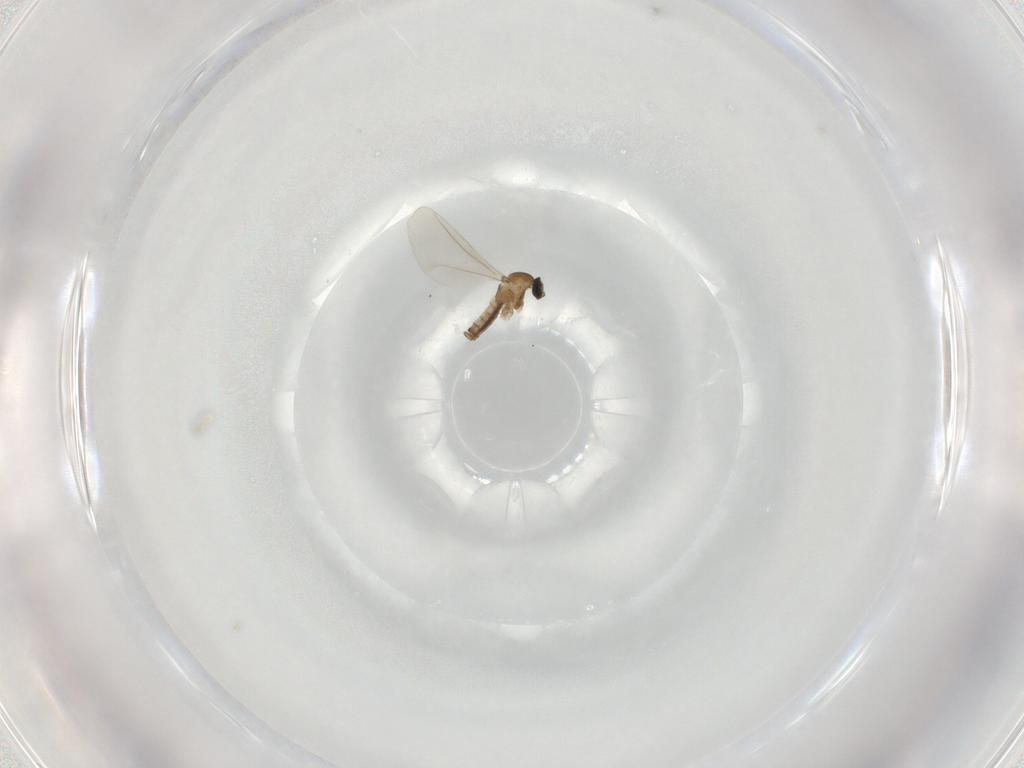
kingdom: Animalia
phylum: Arthropoda
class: Insecta
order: Diptera
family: Cecidomyiidae
